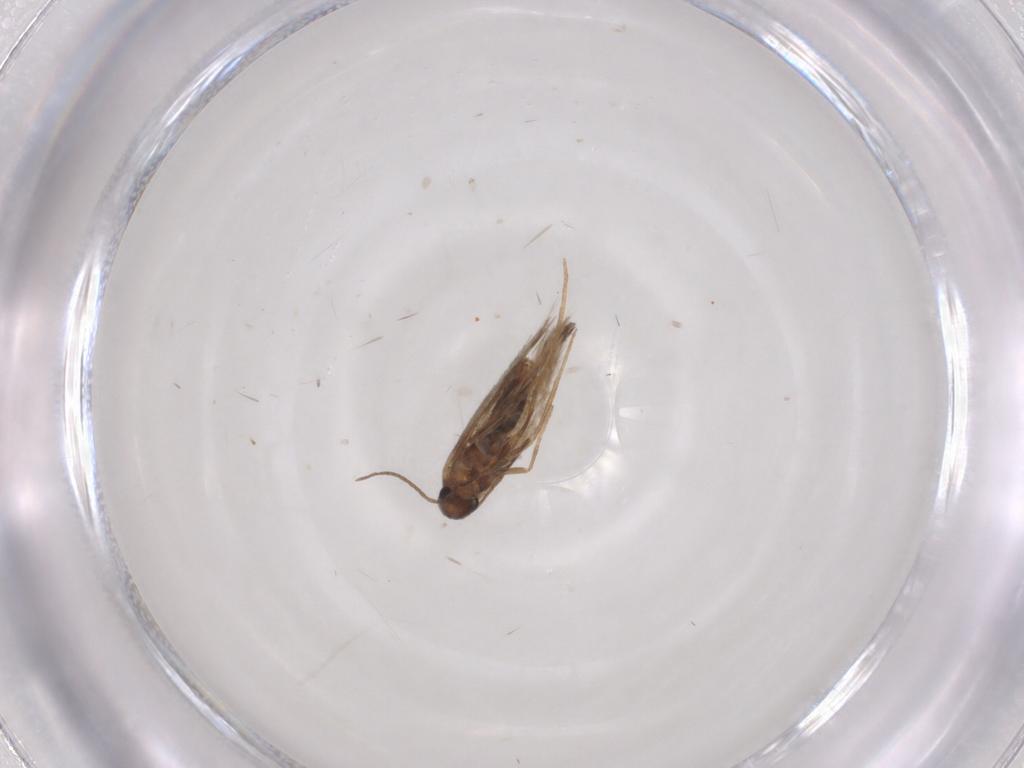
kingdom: Animalia
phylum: Arthropoda
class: Insecta
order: Lepidoptera
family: Heliozelidae
